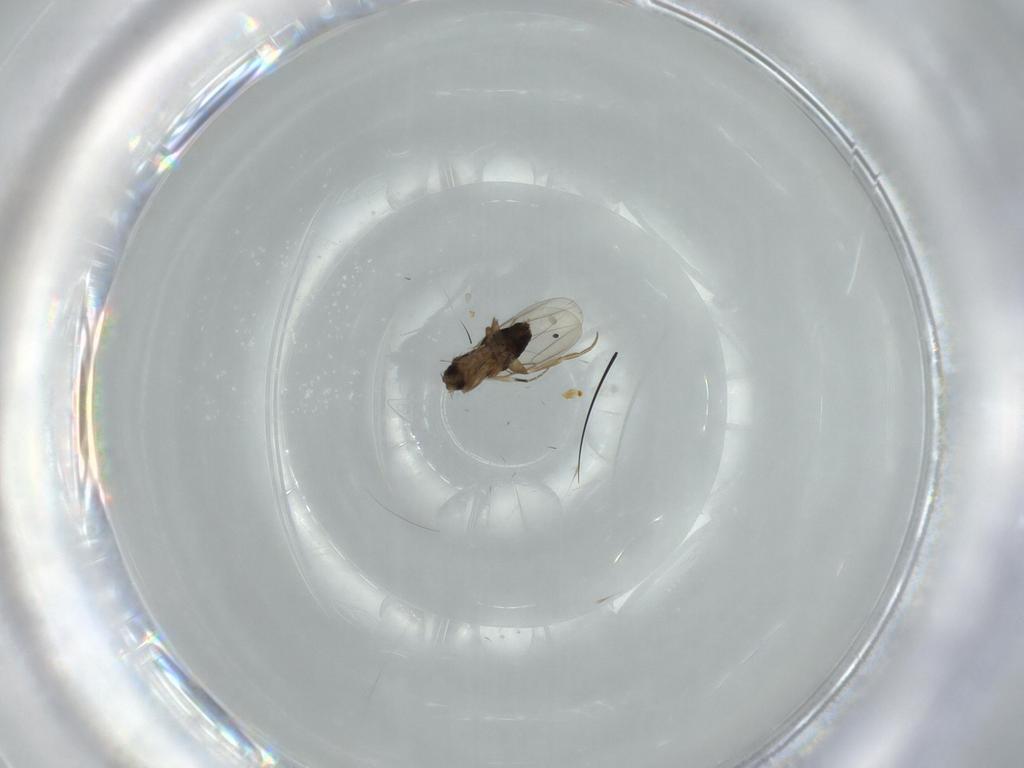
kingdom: Animalia
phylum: Arthropoda
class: Insecta
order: Diptera
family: Phoridae
